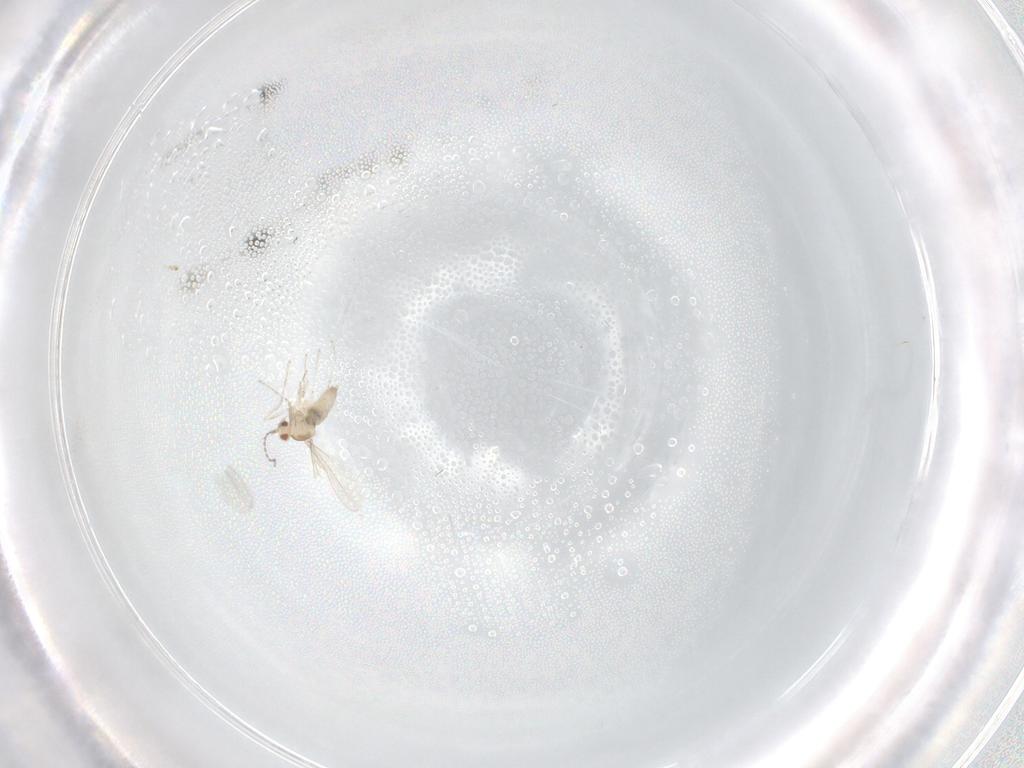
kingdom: Animalia
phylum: Arthropoda
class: Insecta
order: Diptera
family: Cecidomyiidae
